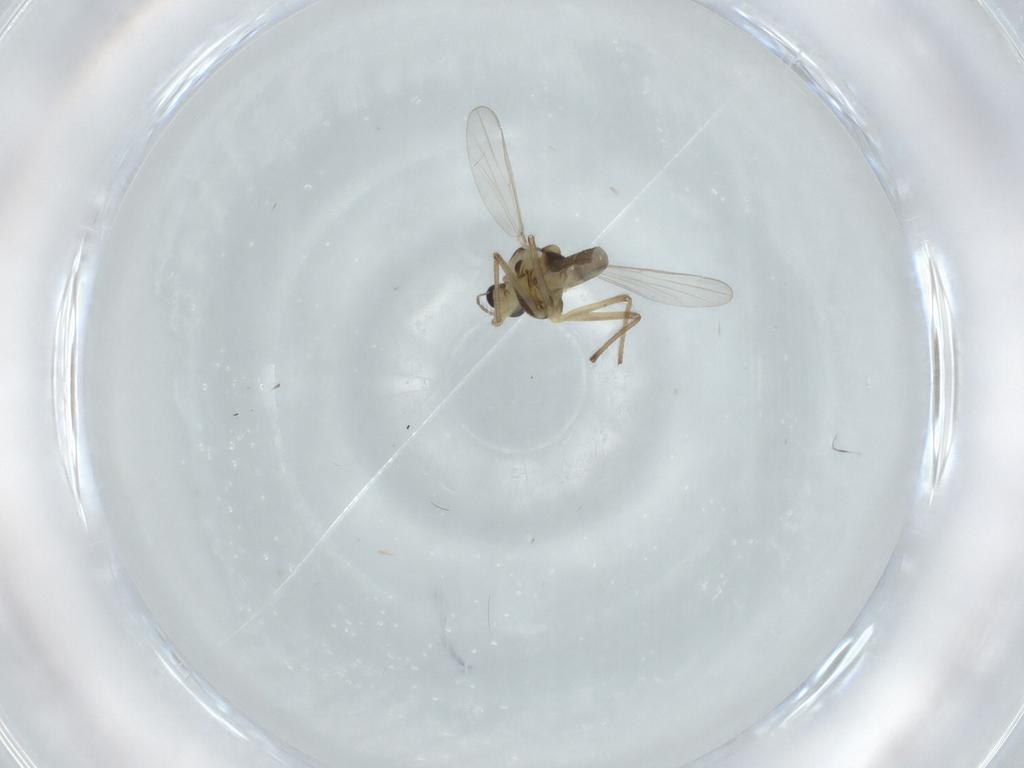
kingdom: Animalia
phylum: Arthropoda
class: Insecta
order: Diptera
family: Chironomidae
